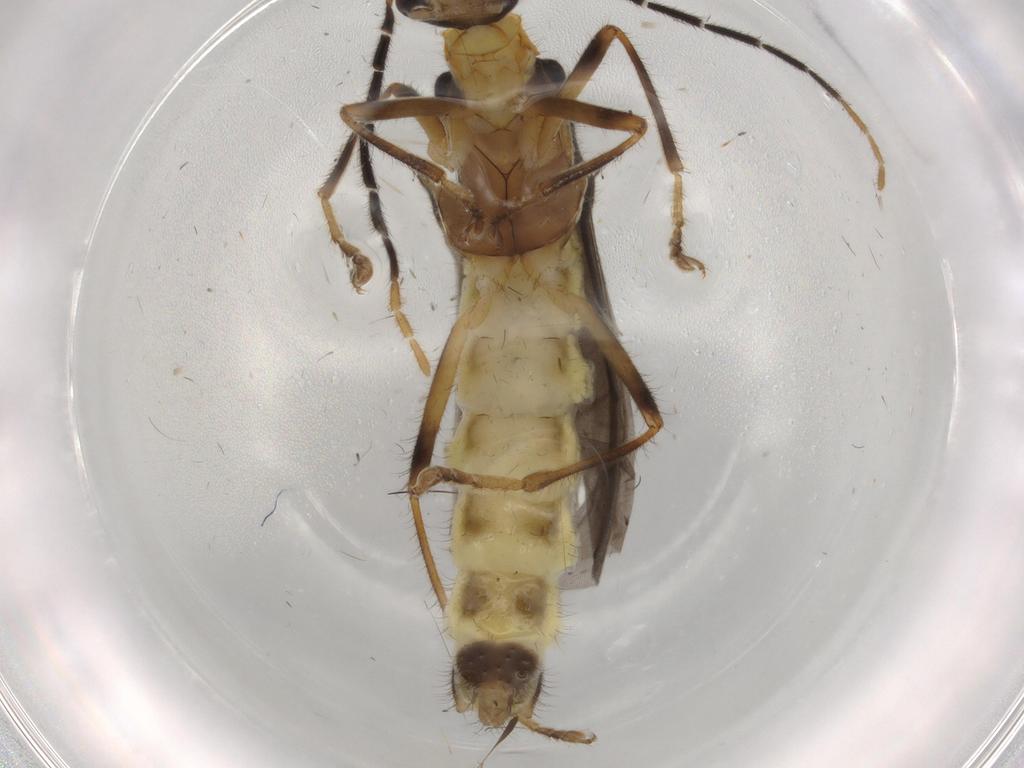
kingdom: Animalia
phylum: Arthropoda
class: Insecta
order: Coleoptera
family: Cantharidae
